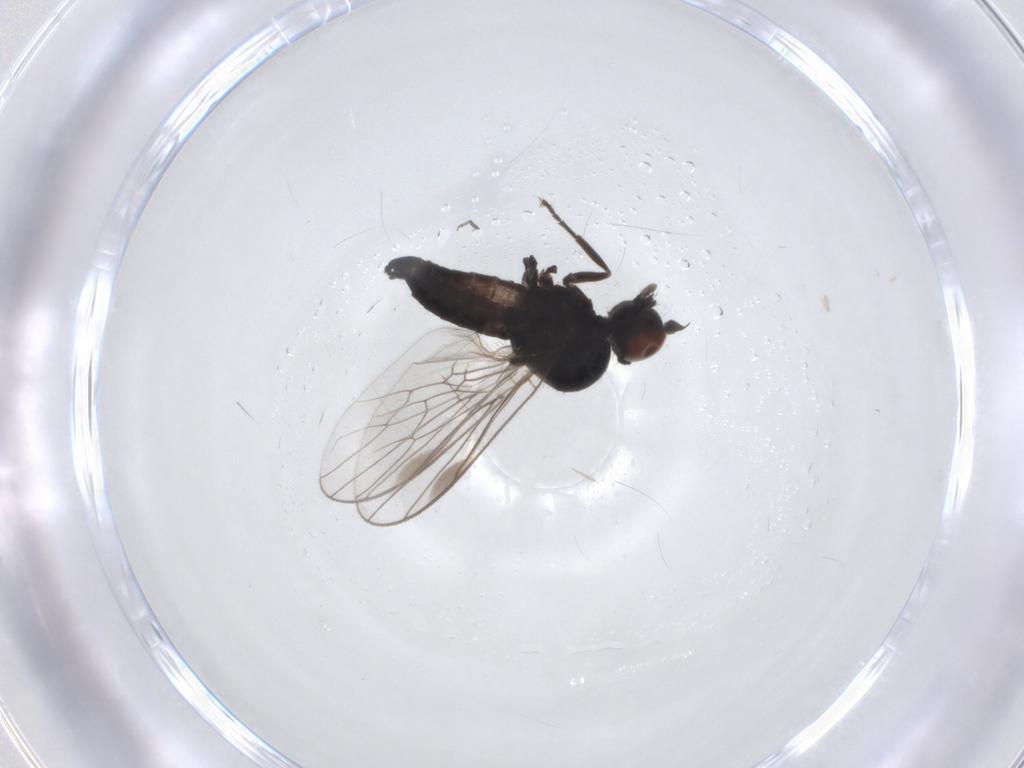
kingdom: Animalia
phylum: Arthropoda
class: Insecta
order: Diptera
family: Hybotidae
